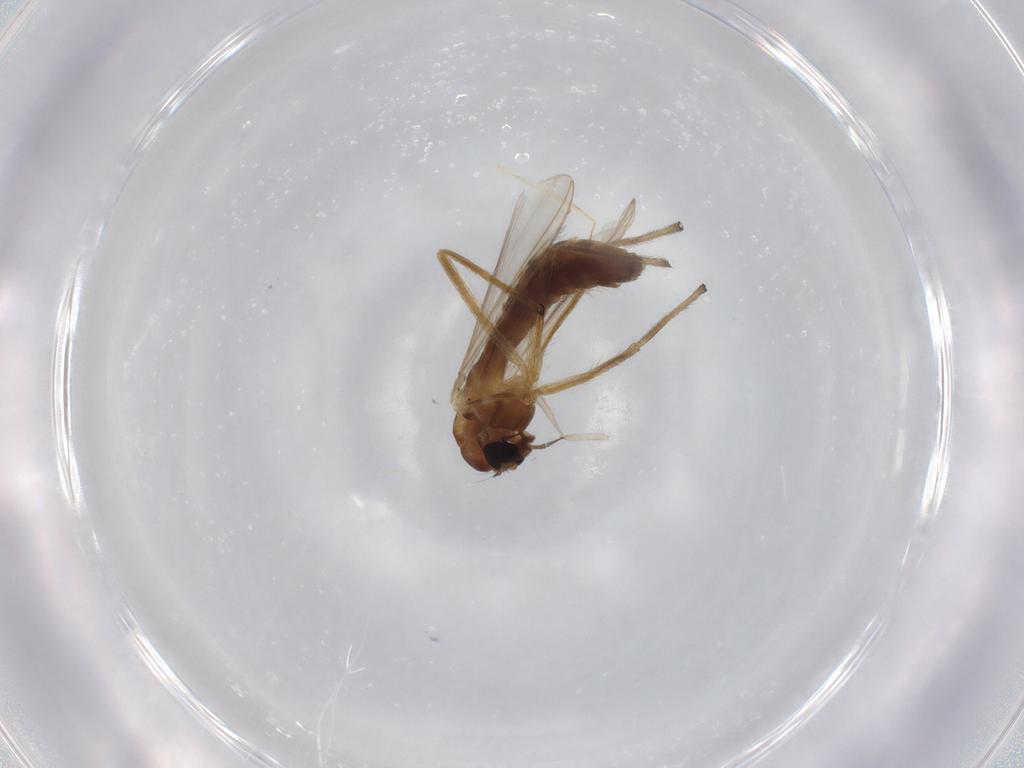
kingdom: Animalia
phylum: Arthropoda
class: Insecta
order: Diptera
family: Chironomidae
